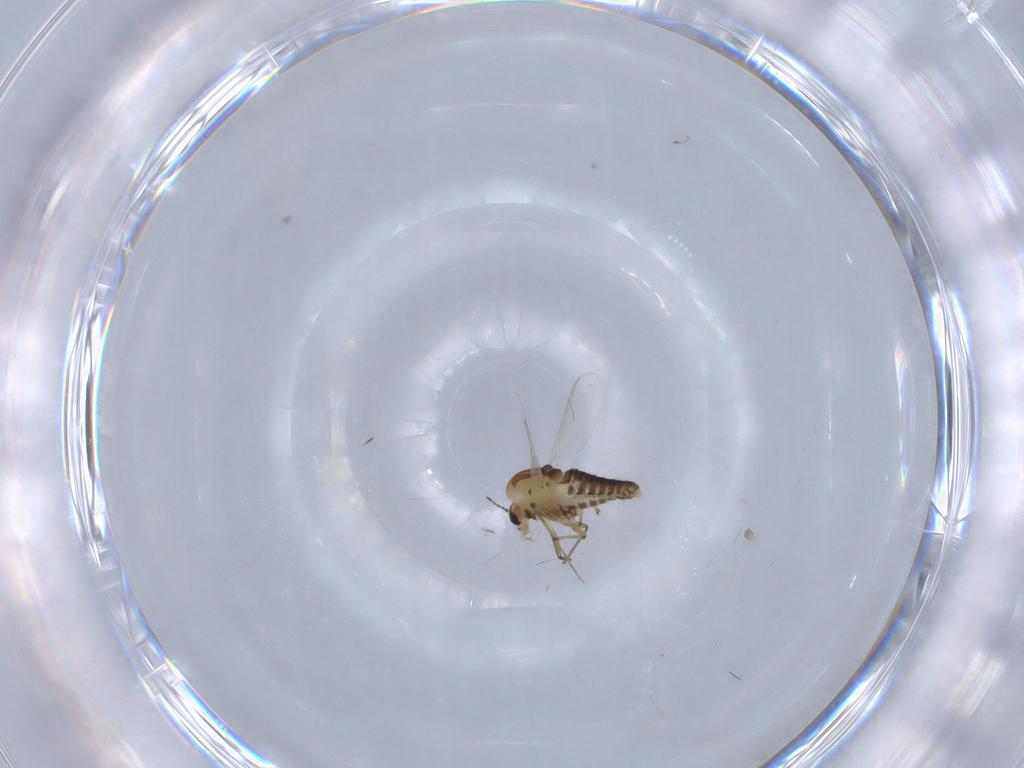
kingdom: Animalia
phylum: Arthropoda
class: Insecta
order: Diptera
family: Chironomidae
